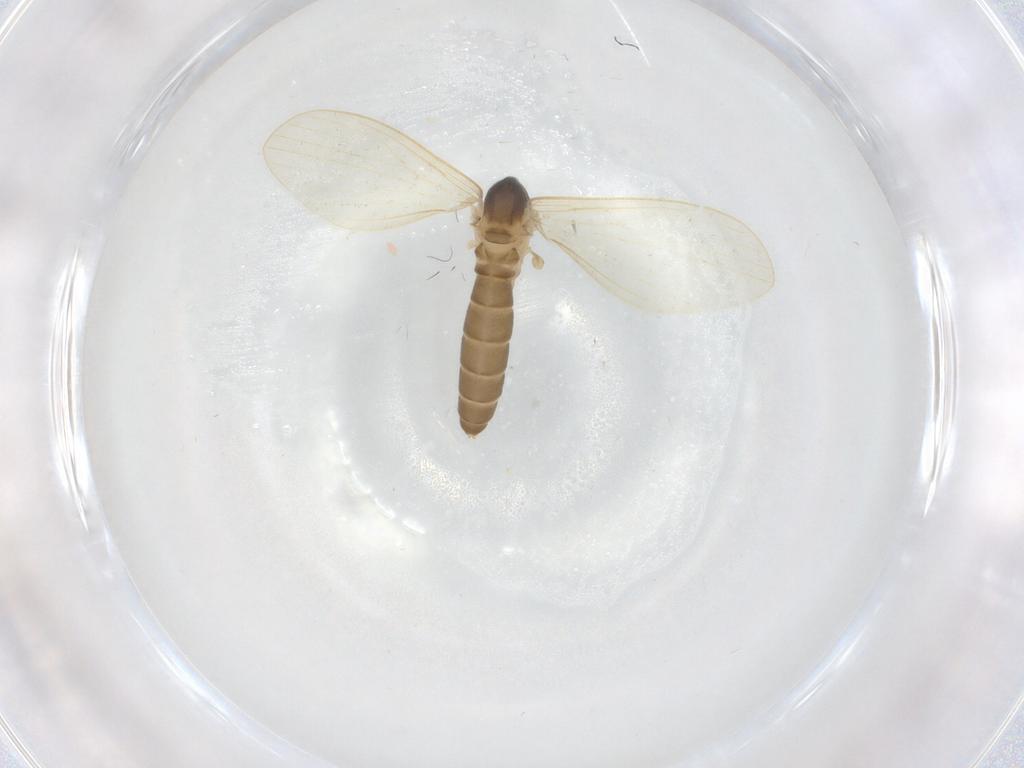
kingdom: Animalia
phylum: Arthropoda
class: Insecta
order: Diptera
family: Psychodidae
